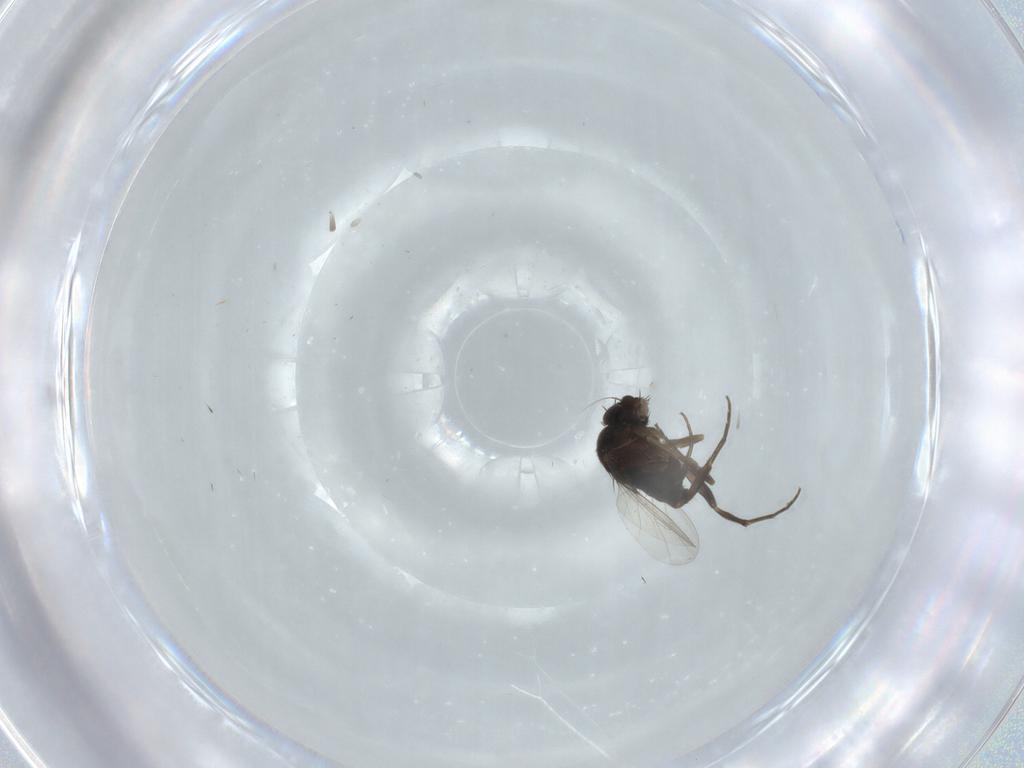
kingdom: Animalia
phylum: Arthropoda
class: Insecta
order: Diptera
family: Phoridae
